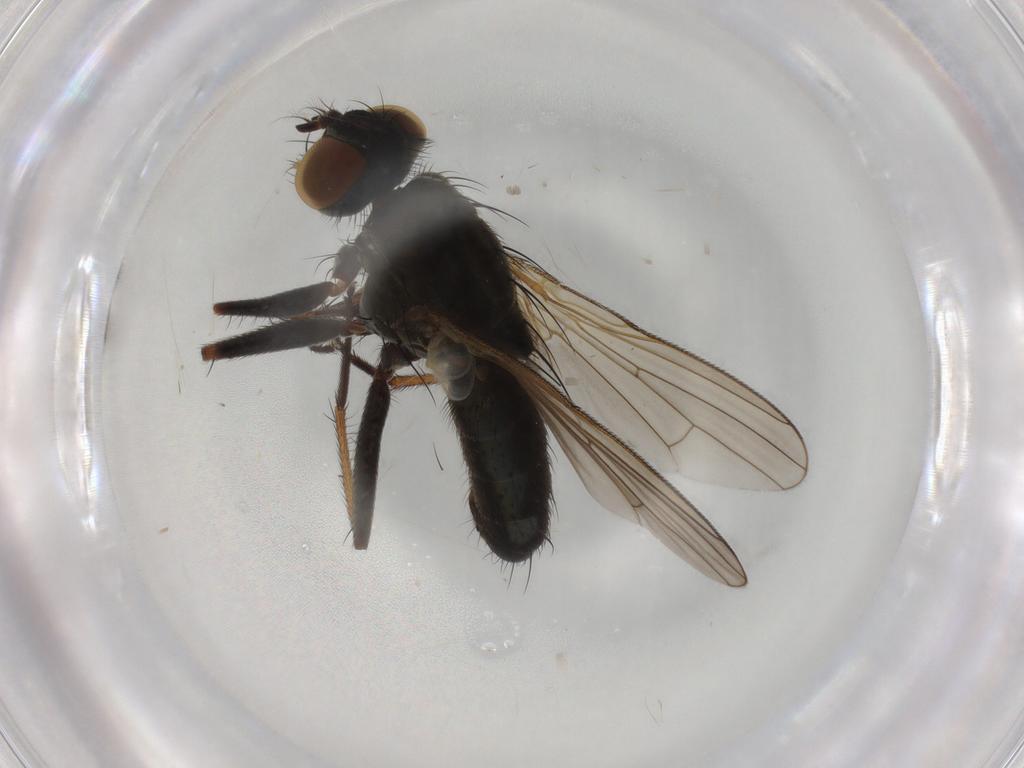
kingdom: Animalia
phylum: Arthropoda
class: Insecta
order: Diptera
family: Muscidae
